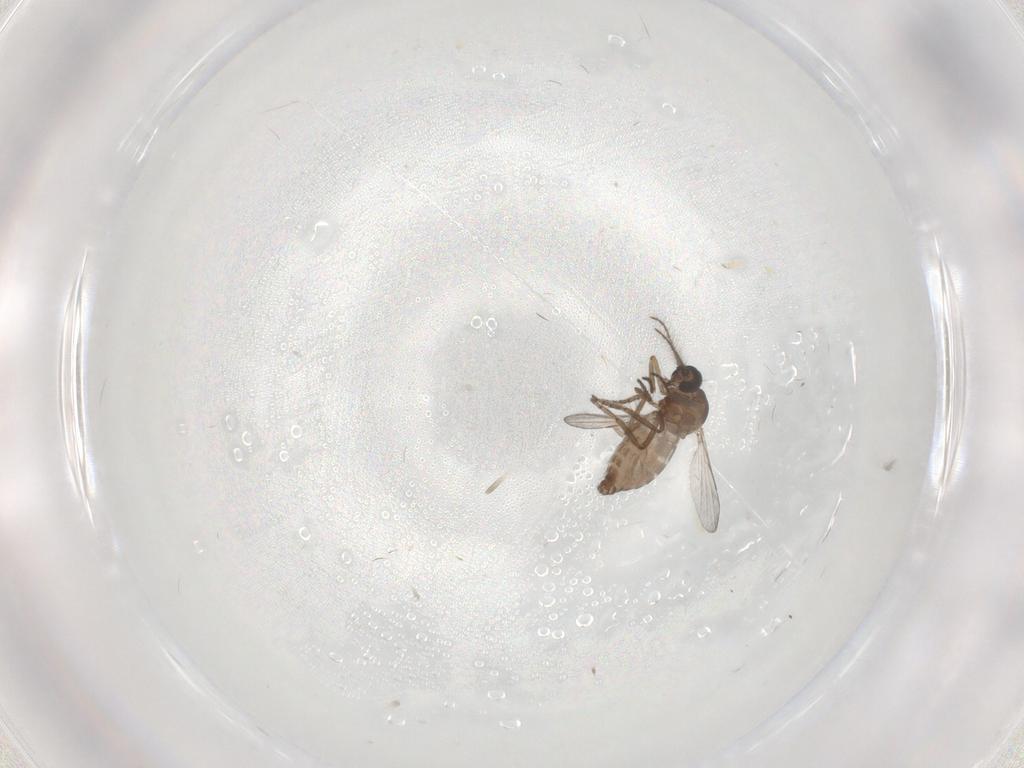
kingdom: Animalia
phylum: Arthropoda
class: Insecta
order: Diptera
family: Ceratopogonidae
